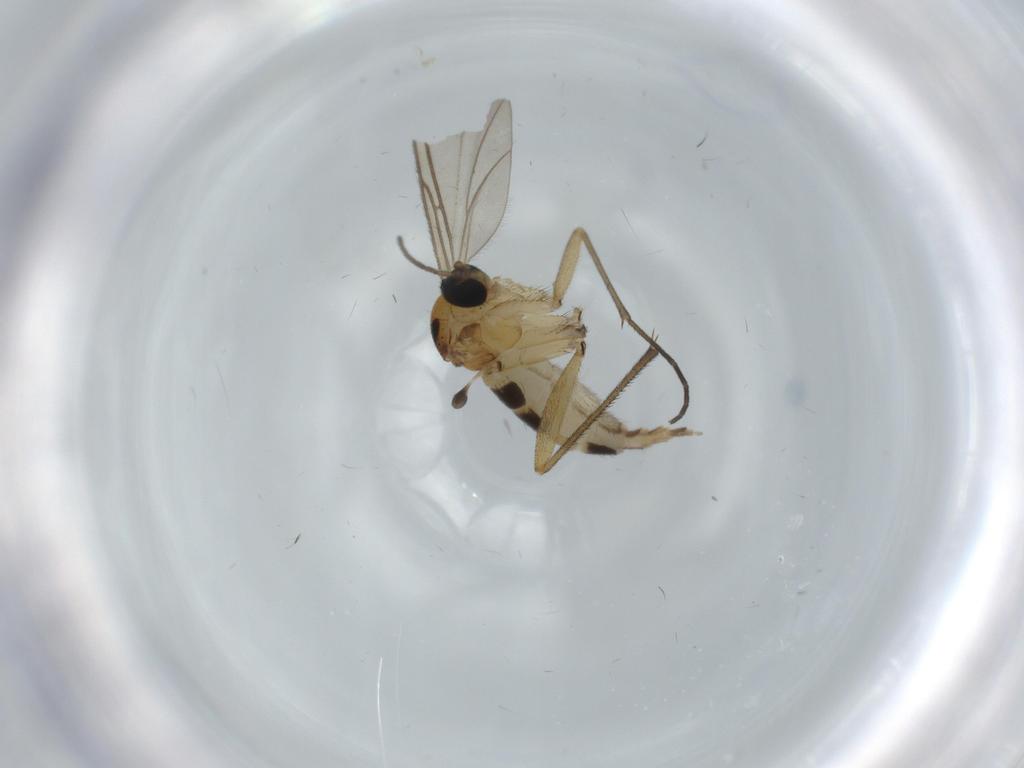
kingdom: Animalia
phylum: Arthropoda
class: Insecta
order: Diptera
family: Sciaridae
